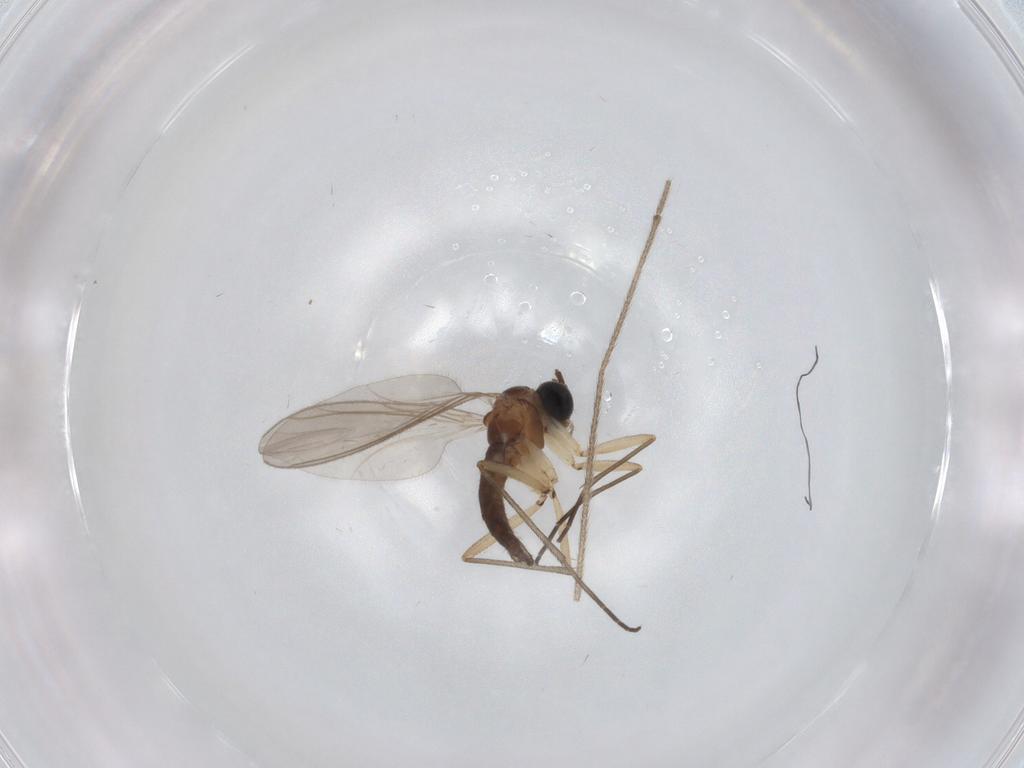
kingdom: Animalia
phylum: Arthropoda
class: Insecta
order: Diptera
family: Sciaridae
